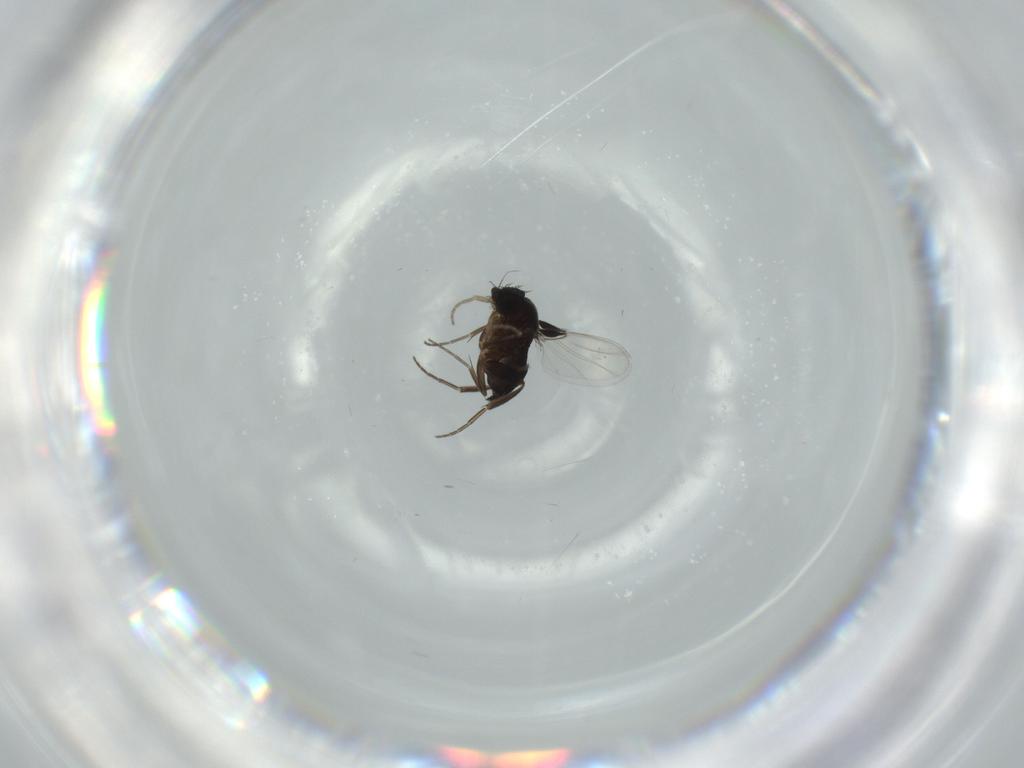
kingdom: Animalia
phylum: Arthropoda
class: Insecta
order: Diptera
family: Phoridae
